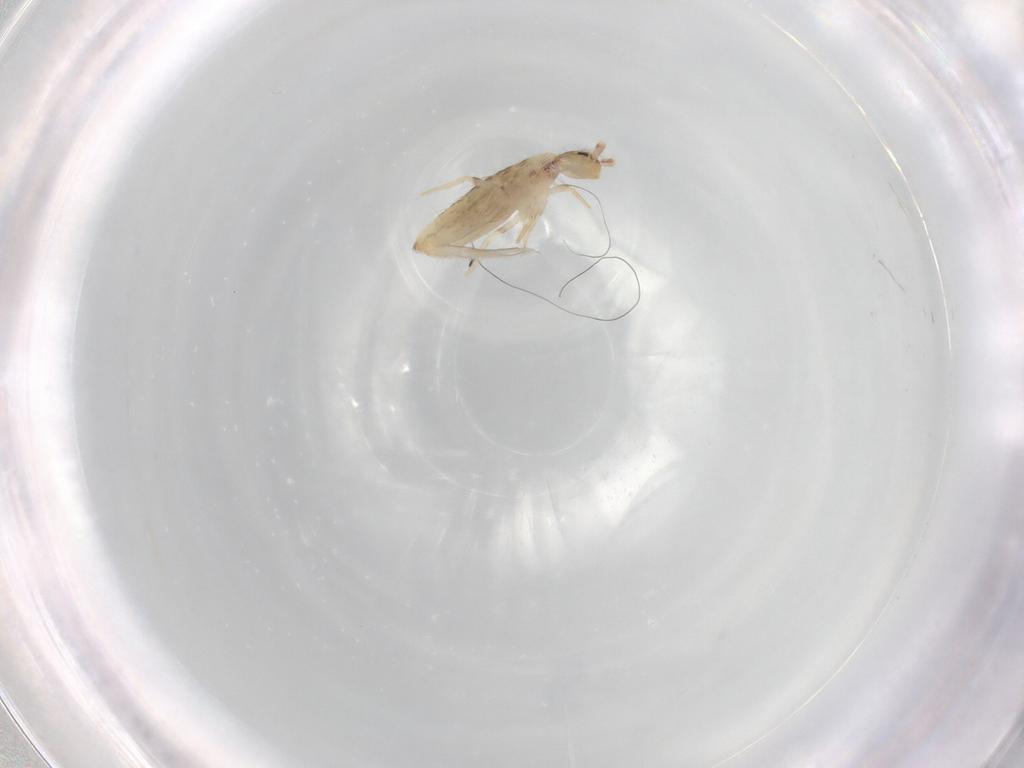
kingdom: Animalia
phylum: Arthropoda
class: Collembola
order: Entomobryomorpha
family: Entomobryidae
